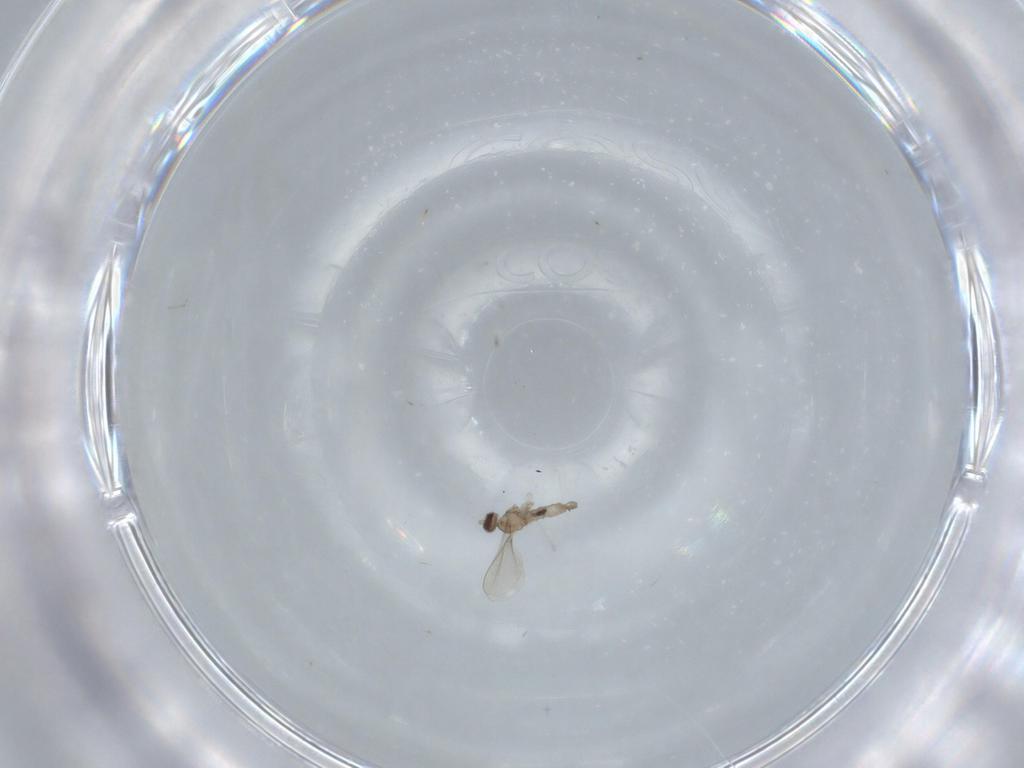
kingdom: Animalia
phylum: Arthropoda
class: Insecta
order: Diptera
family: Cecidomyiidae
